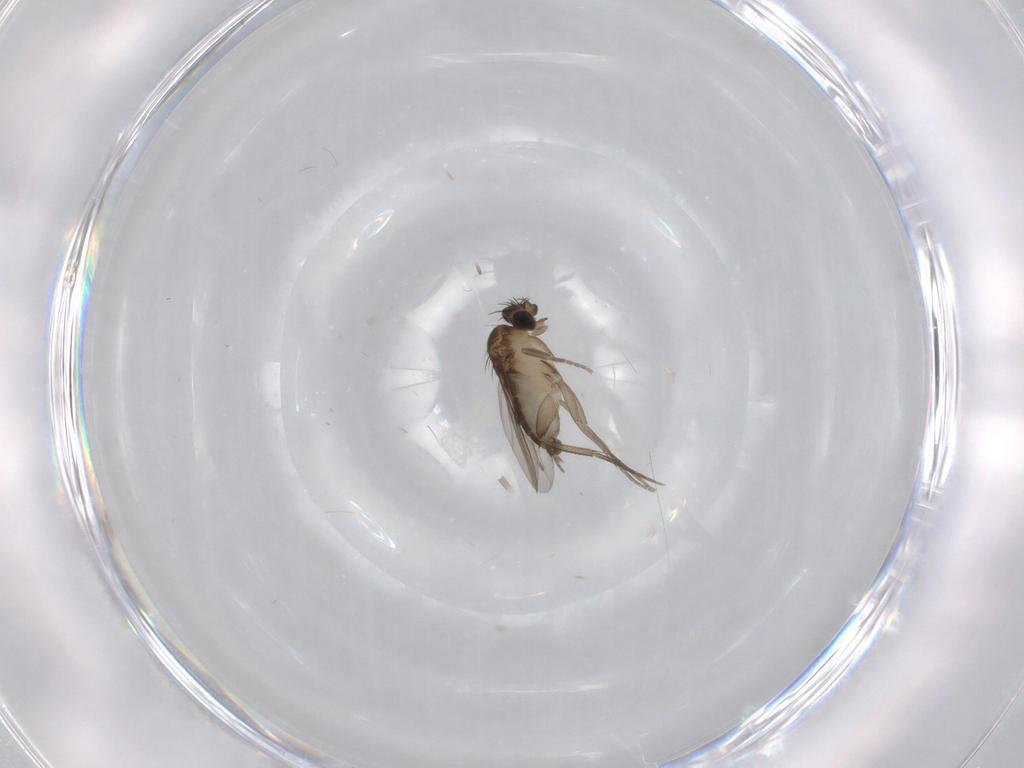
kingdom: Animalia
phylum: Arthropoda
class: Insecta
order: Diptera
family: Phoridae
